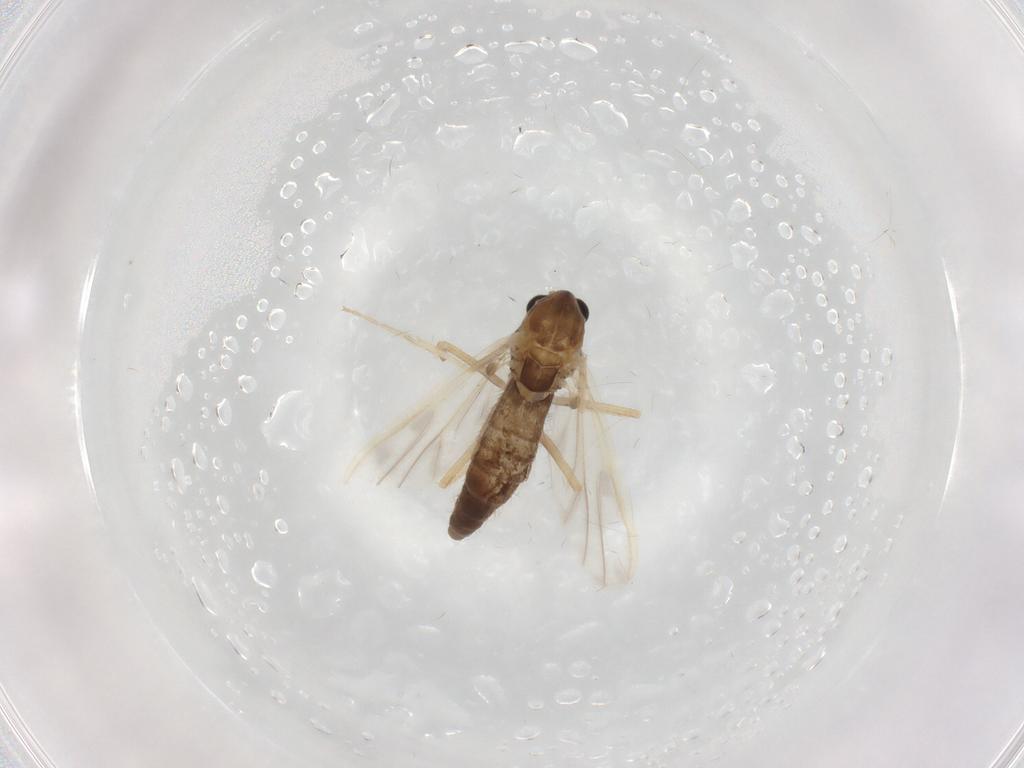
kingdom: Animalia
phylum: Arthropoda
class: Insecta
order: Diptera
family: Chironomidae
